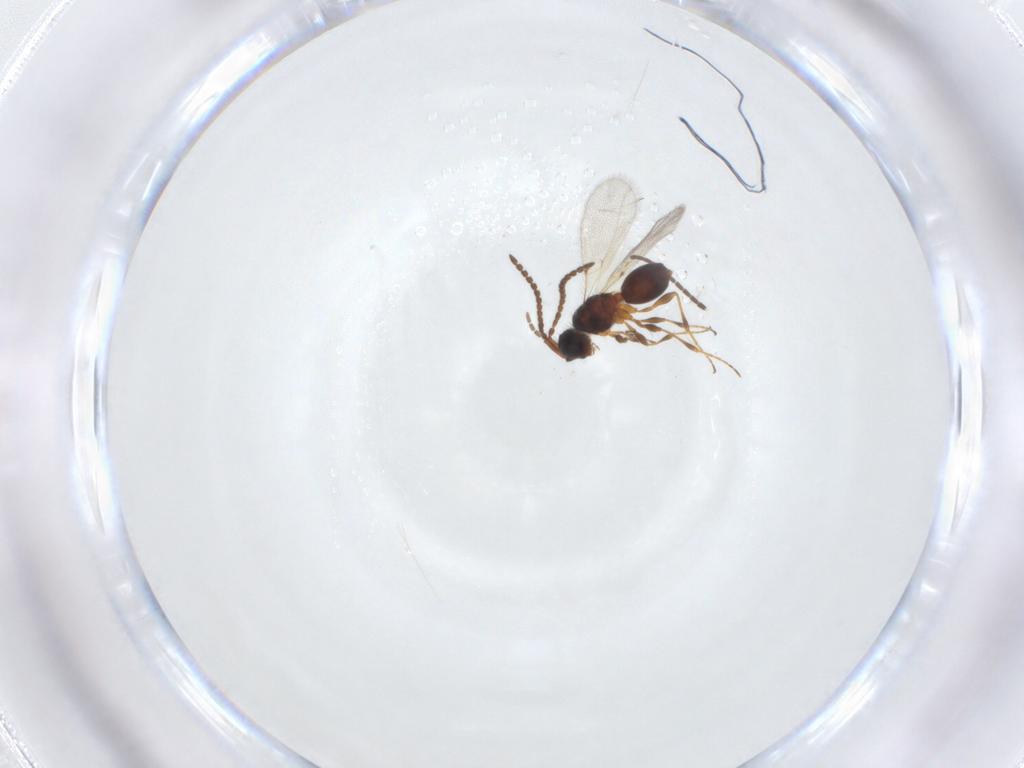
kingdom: Animalia
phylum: Arthropoda
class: Insecta
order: Hymenoptera
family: Diapriidae
